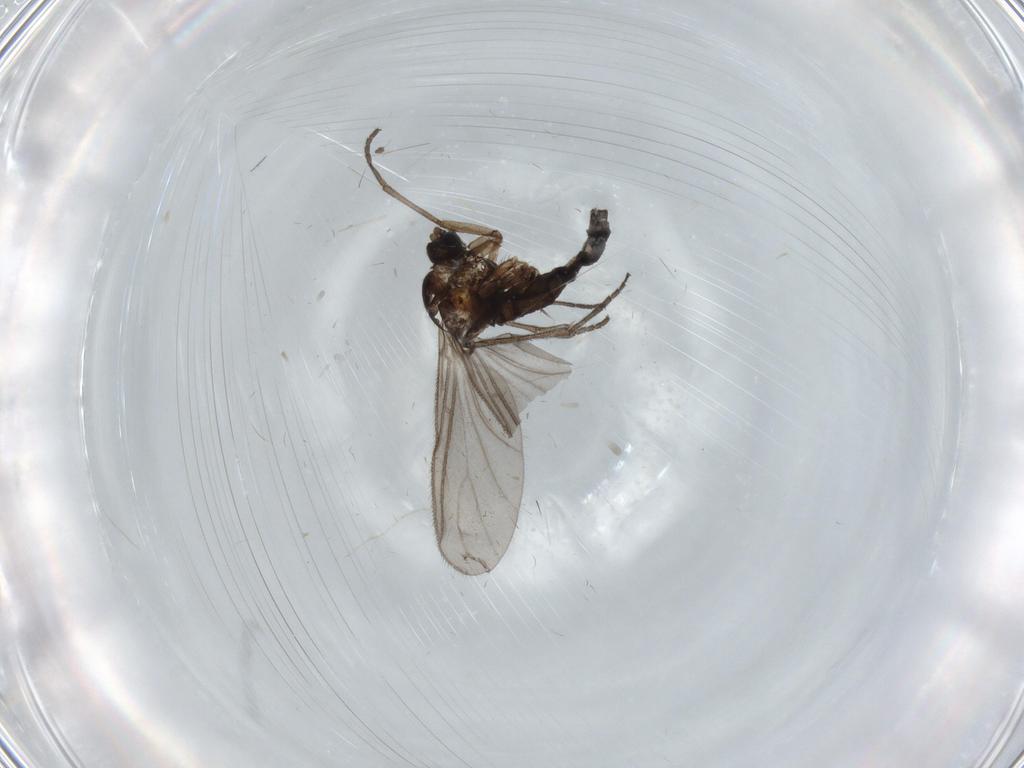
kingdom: Animalia
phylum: Arthropoda
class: Insecta
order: Diptera
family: Sciaridae
